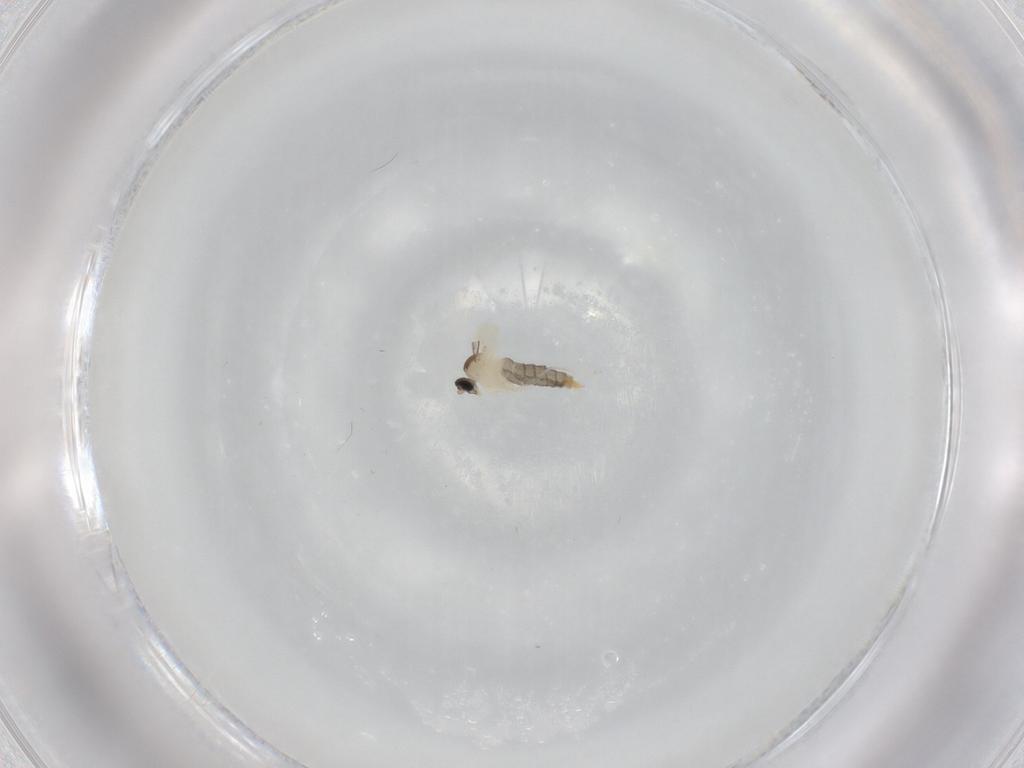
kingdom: Animalia
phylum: Arthropoda
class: Insecta
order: Diptera
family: Cecidomyiidae
